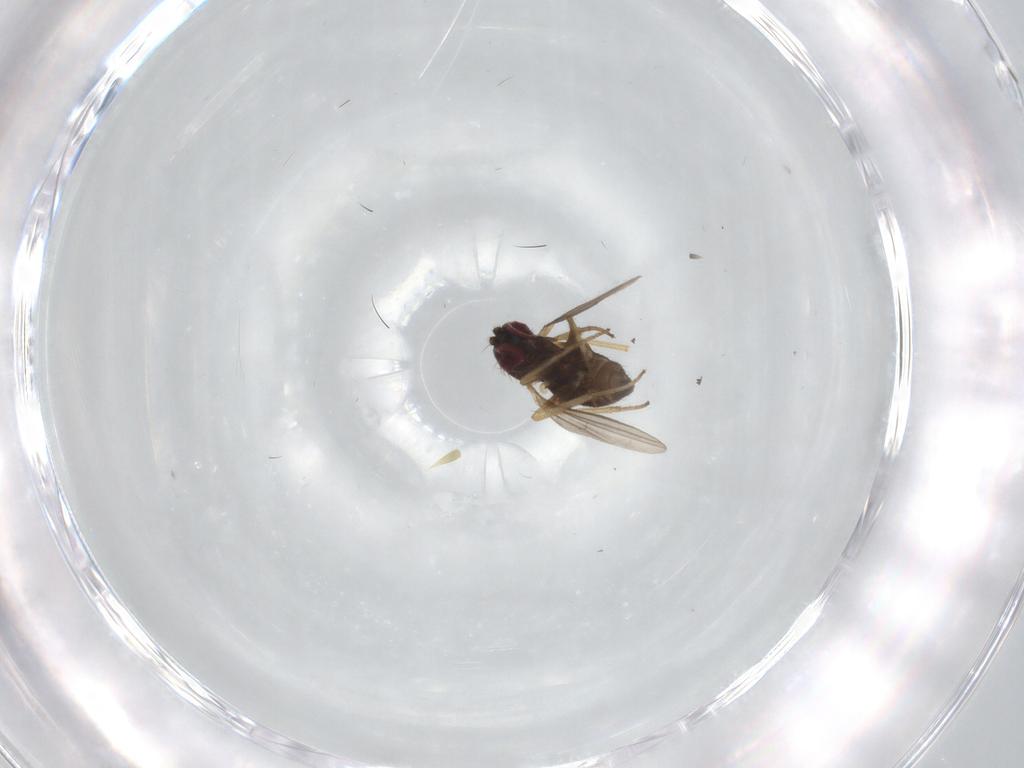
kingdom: Animalia
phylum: Arthropoda
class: Insecta
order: Diptera
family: Dolichopodidae
